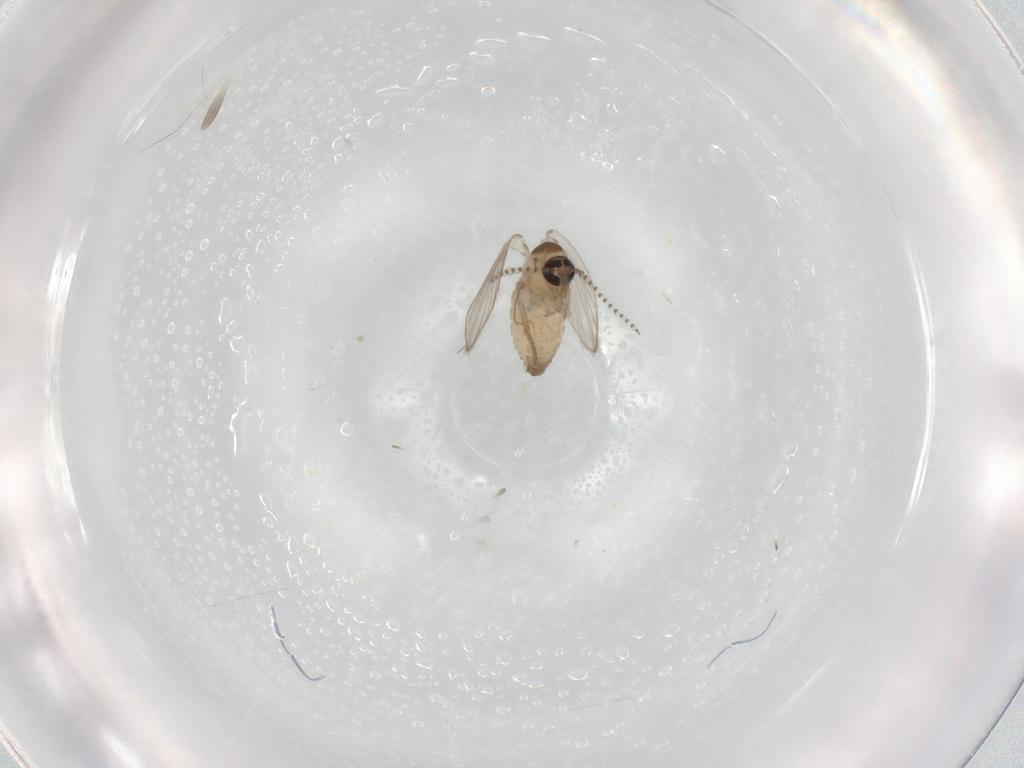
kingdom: Animalia
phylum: Arthropoda
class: Insecta
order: Diptera
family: Psychodidae
